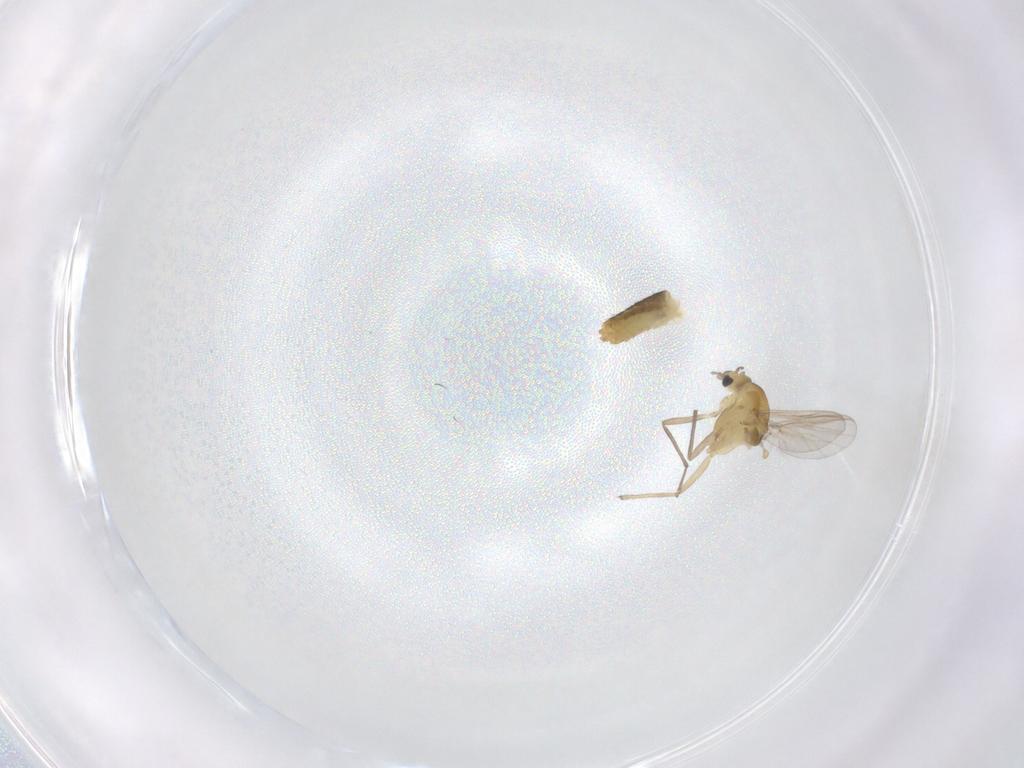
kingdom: Animalia
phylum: Arthropoda
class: Insecta
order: Diptera
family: Chironomidae
